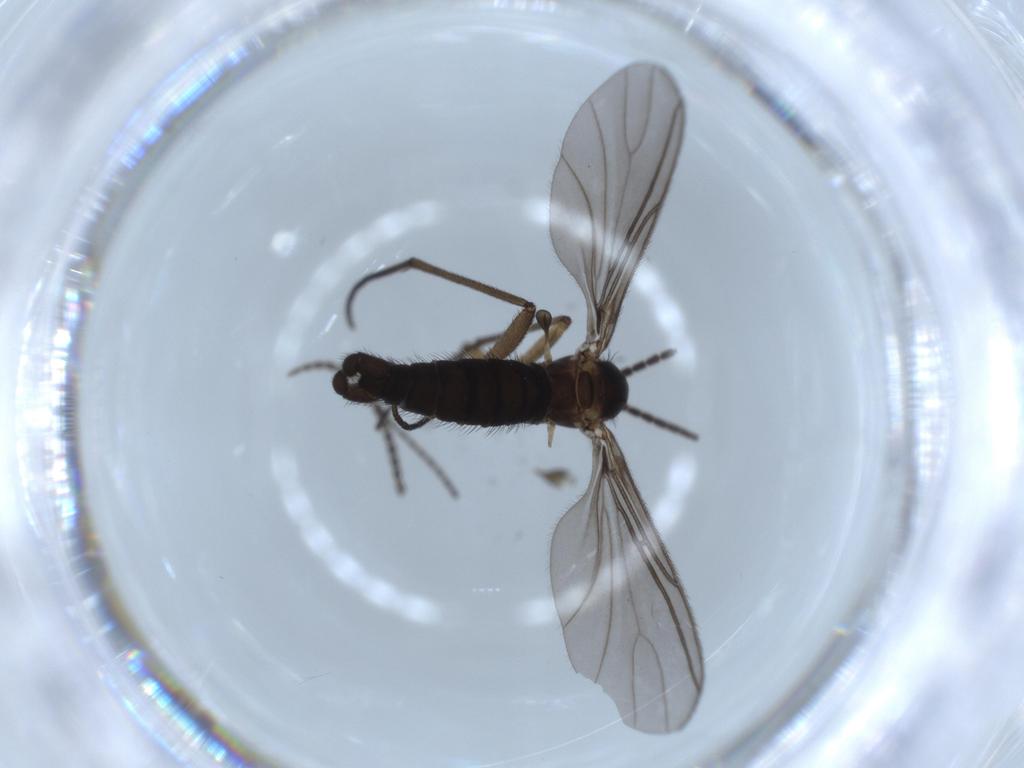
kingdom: Animalia
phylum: Arthropoda
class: Insecta
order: Diptera
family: Sciaridae
